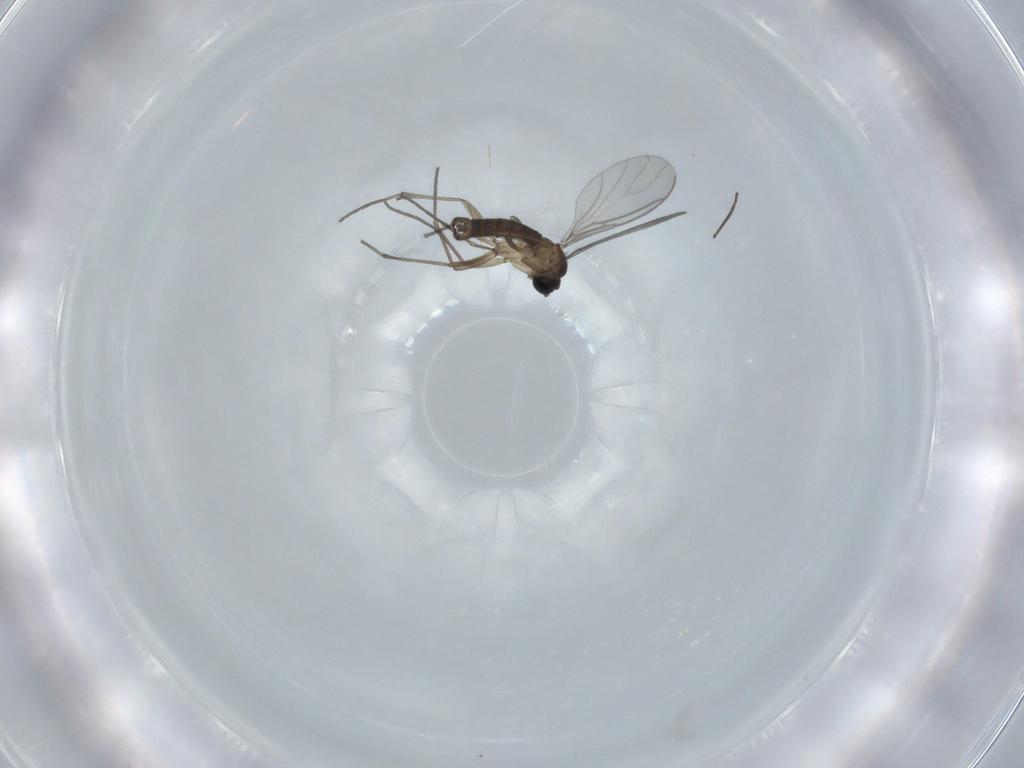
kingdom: Animalia
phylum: Arthropoda
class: Insecta
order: Diptera
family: Sciaridae
